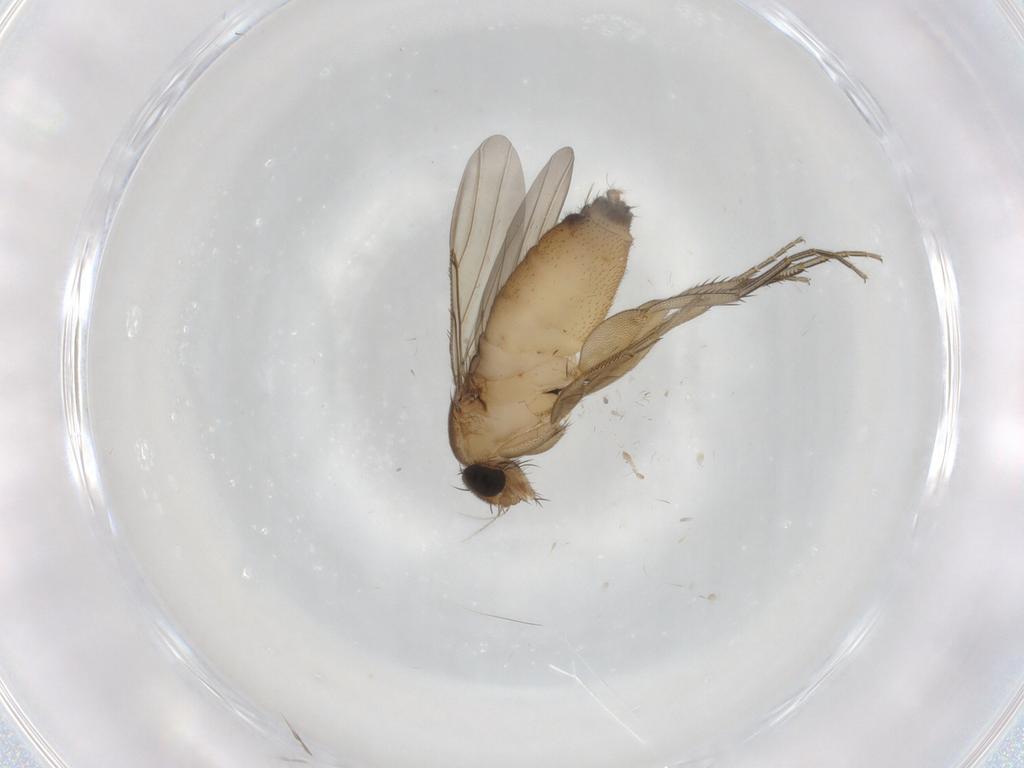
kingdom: Animalia
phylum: Arthropoda
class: Insecta
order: Diptera
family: Phoridae
